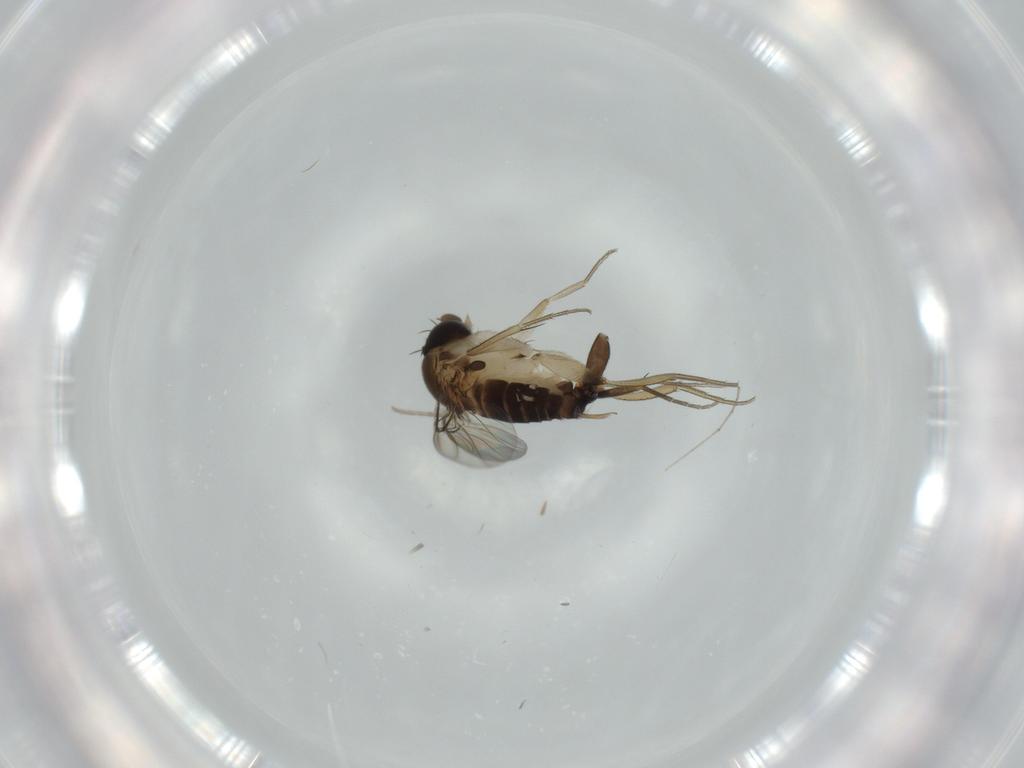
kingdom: Animalia
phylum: Arthropoda
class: Insecta
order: Diptera
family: Phoridae
